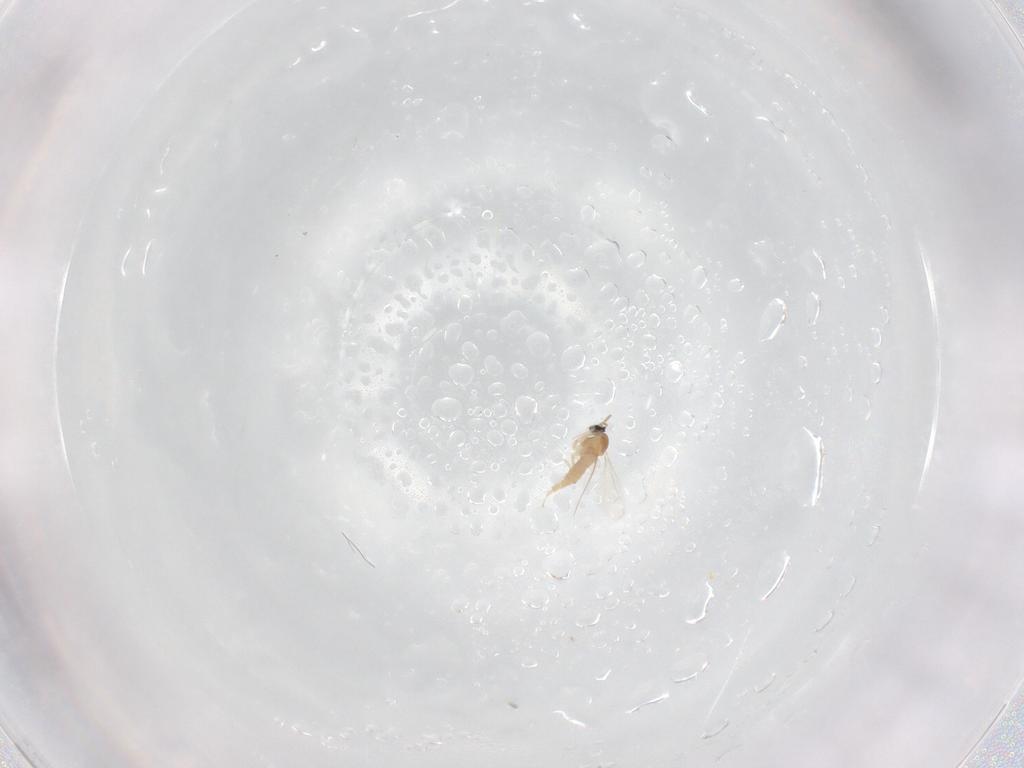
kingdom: Animalia
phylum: Arthropoda
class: Insecta
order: Diptera
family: Cecidomyiidae
